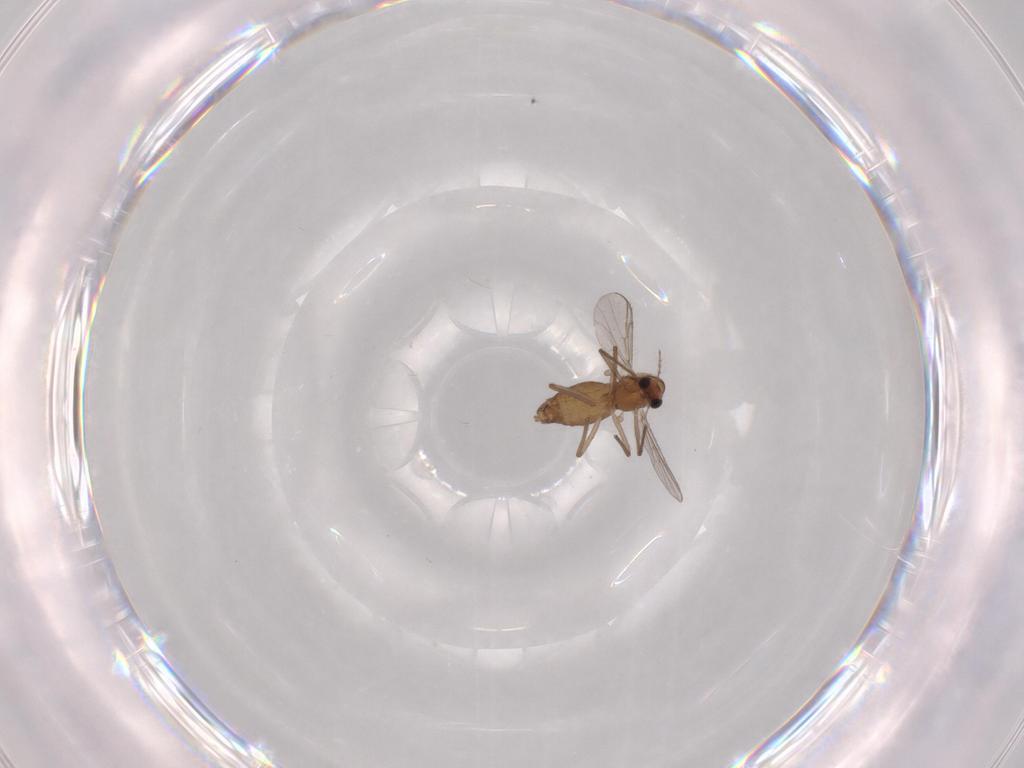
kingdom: Animalia
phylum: Arthropoda
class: Insecta
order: Diptera
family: Chironomidae
